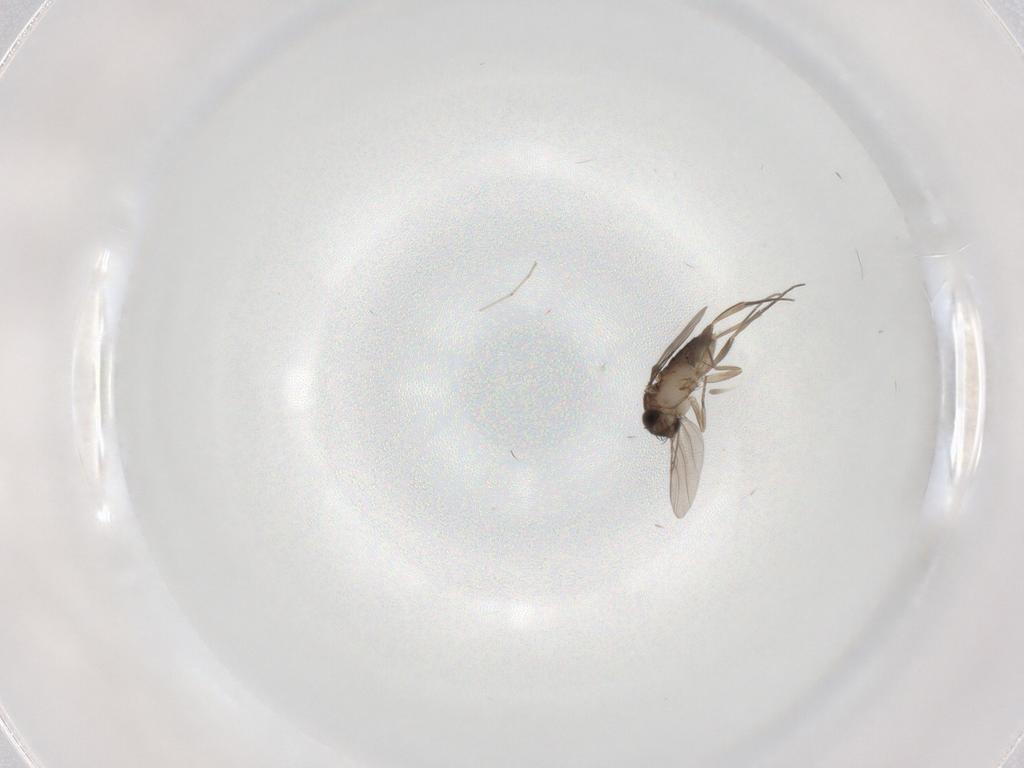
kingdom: Animalia
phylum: Arthropoda
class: Insecta
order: Diptera
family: Phoridae
